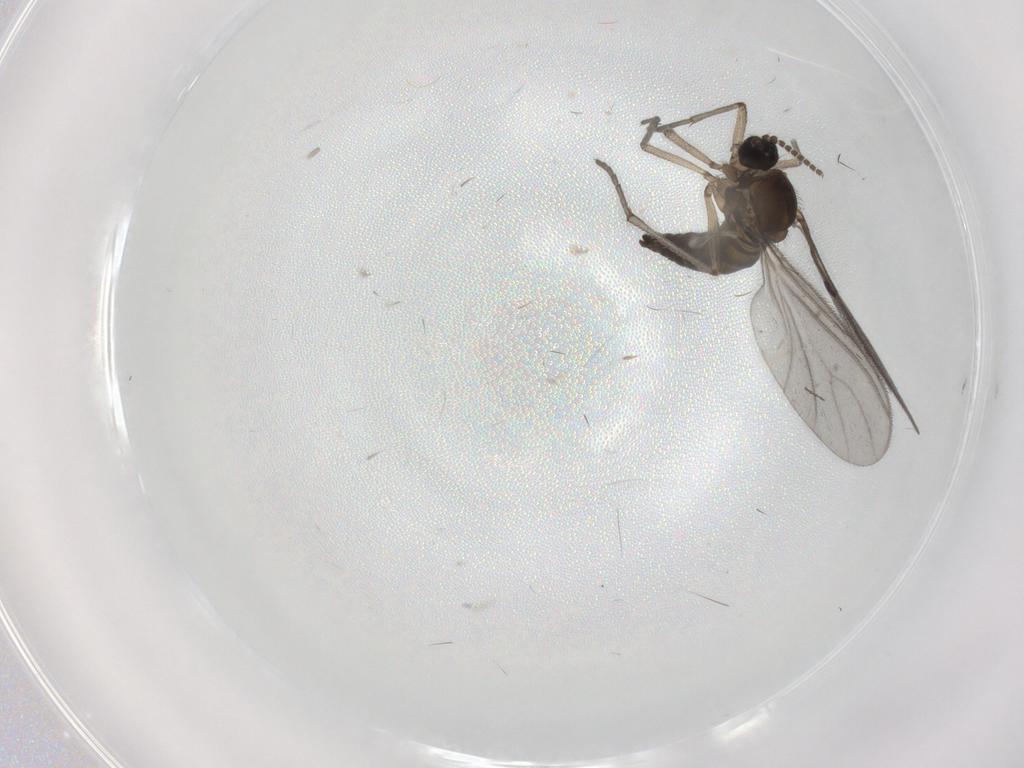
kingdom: Animalia
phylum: Arthropoda
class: Insecta
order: Diptera
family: Sciaridae
